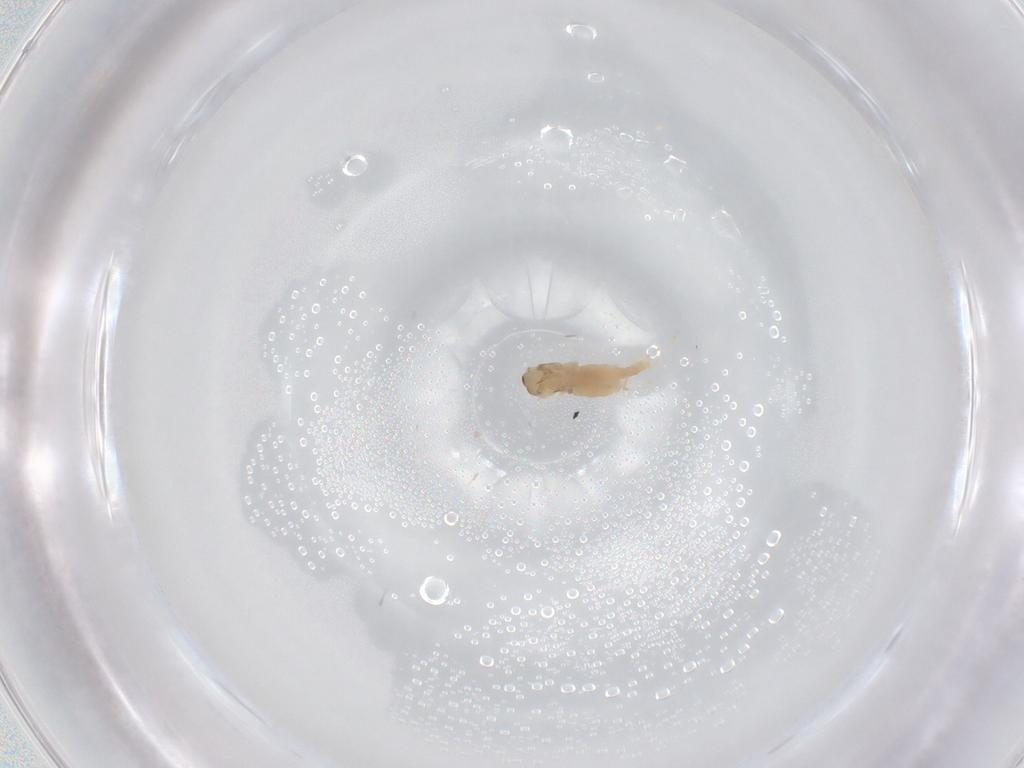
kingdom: Animalia
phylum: Arthropoda
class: Insecta
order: Diptera
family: Cecidomyiidae
